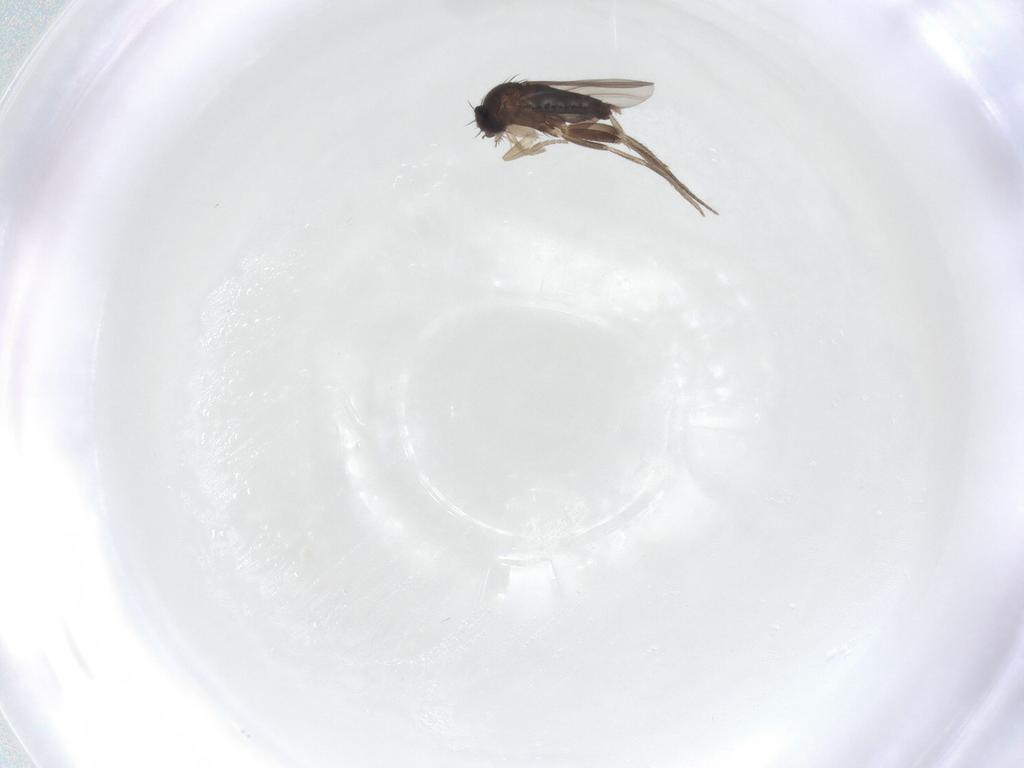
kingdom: Animalia
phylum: Arthropoda
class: Insecta
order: Diptera
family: Phoridae
